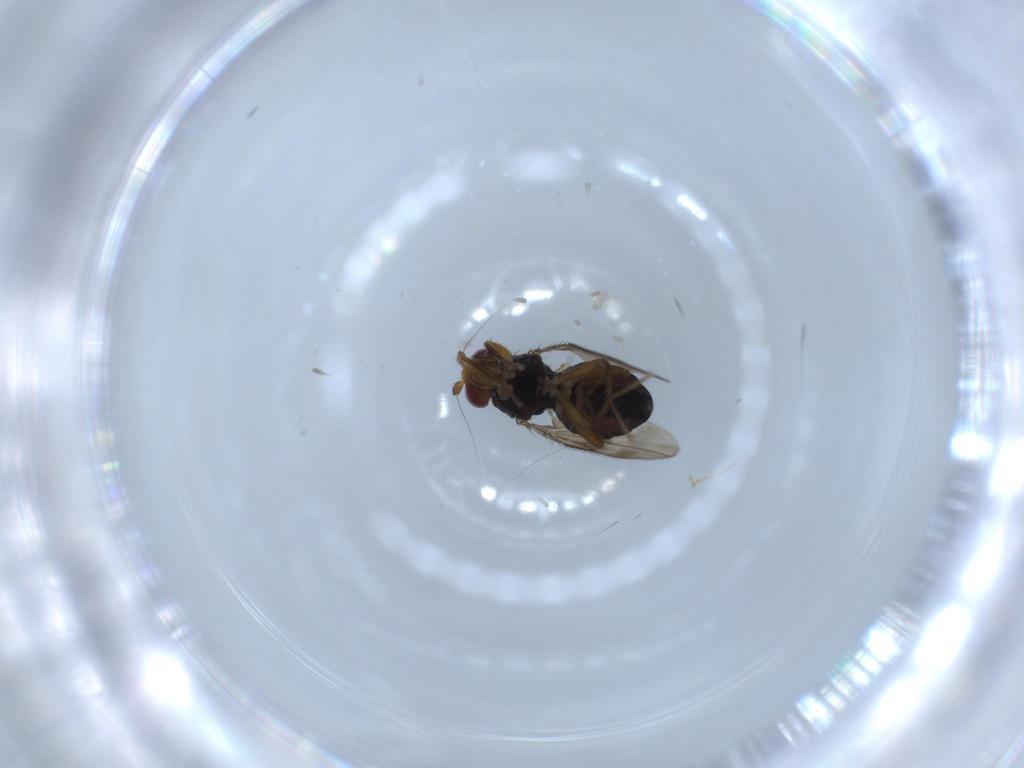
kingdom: Animalia
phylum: Arthropoda
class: Insecta
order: Diptera
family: Sphaeroceridae
